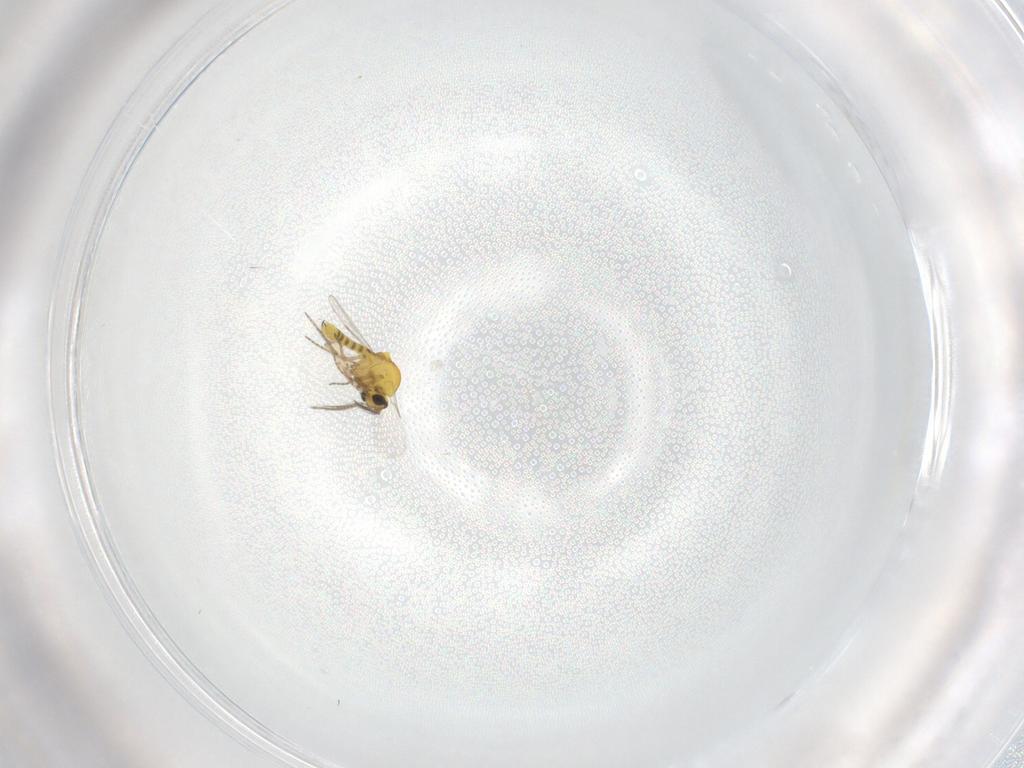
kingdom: Animalia
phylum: Arthropoda
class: Insecta
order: Diptera
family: Ceratopogonidae
